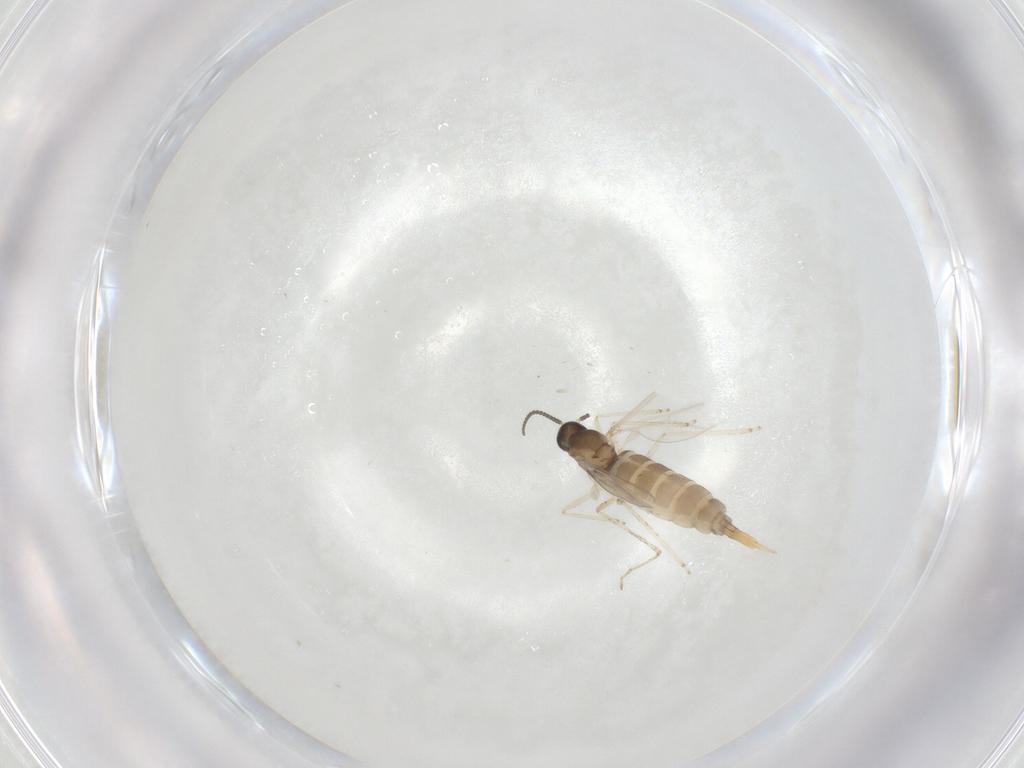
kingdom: Animalia
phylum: Arthropoda
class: Insecta
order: Diptera
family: Cecidomyiidae
